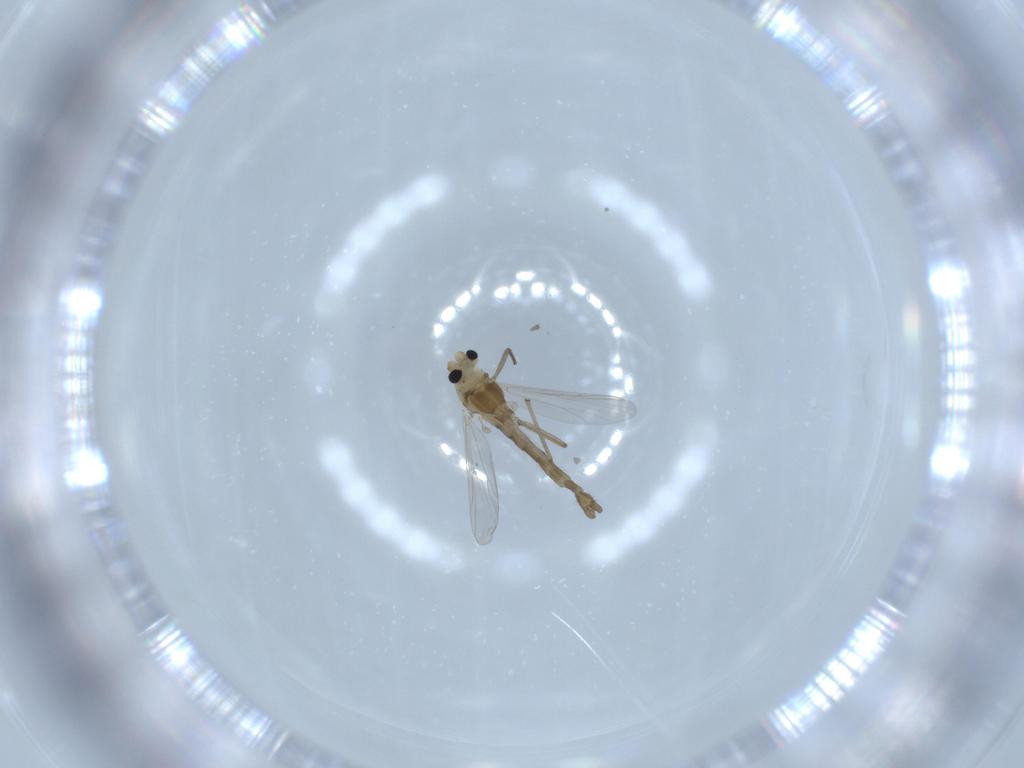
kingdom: Animalia
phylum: Arthropoda
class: Insecta
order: Diptera
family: Chironomidae
